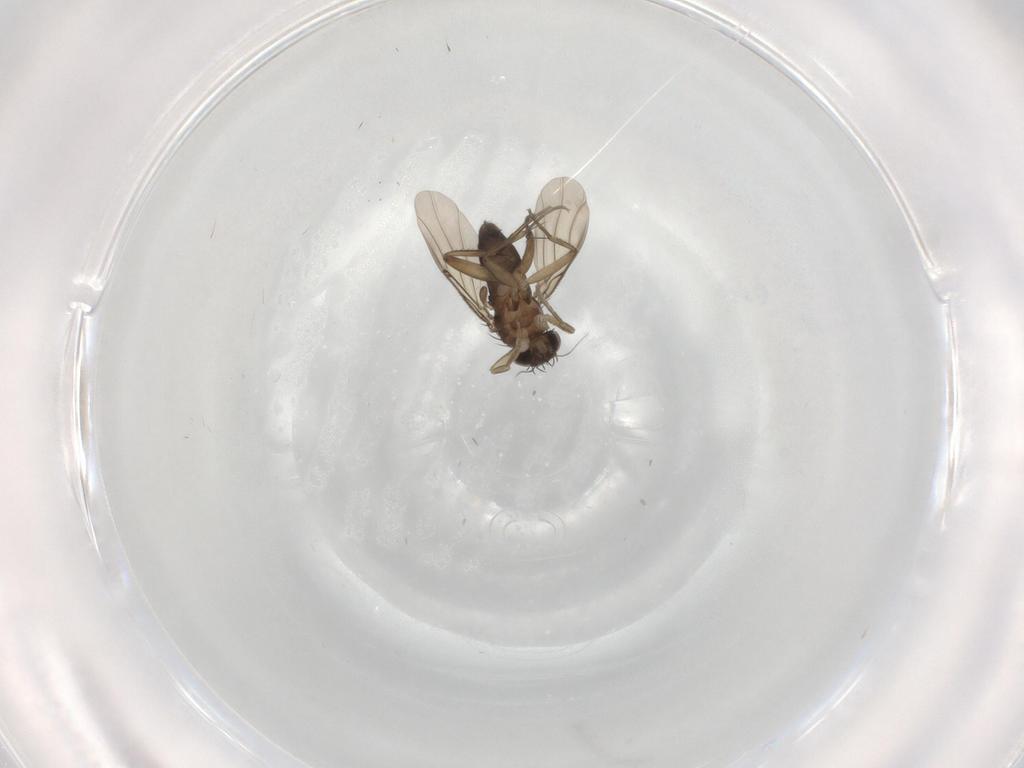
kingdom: Animalia
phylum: Arthropoda
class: Insecta
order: Diptera
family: Phoridae
